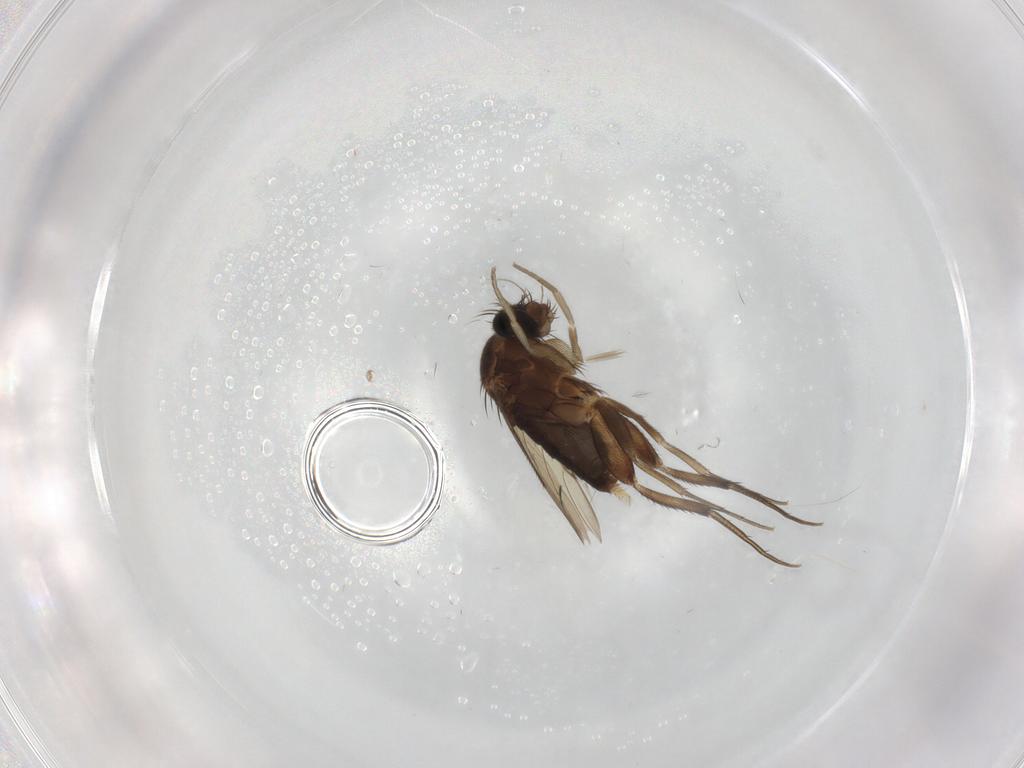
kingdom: Animalia
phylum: Arthropoda
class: Insecta
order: Diptera
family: Phoridae
